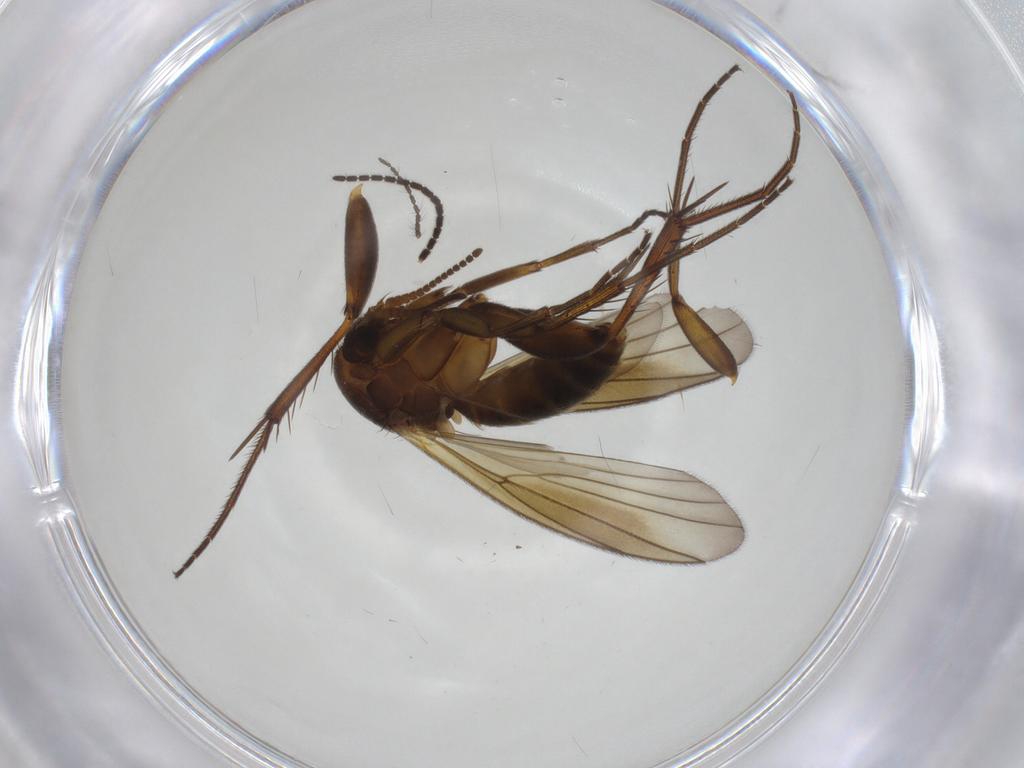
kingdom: Animalia
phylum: Arthropoda
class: Insecta
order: Diptera
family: Sciaridae
